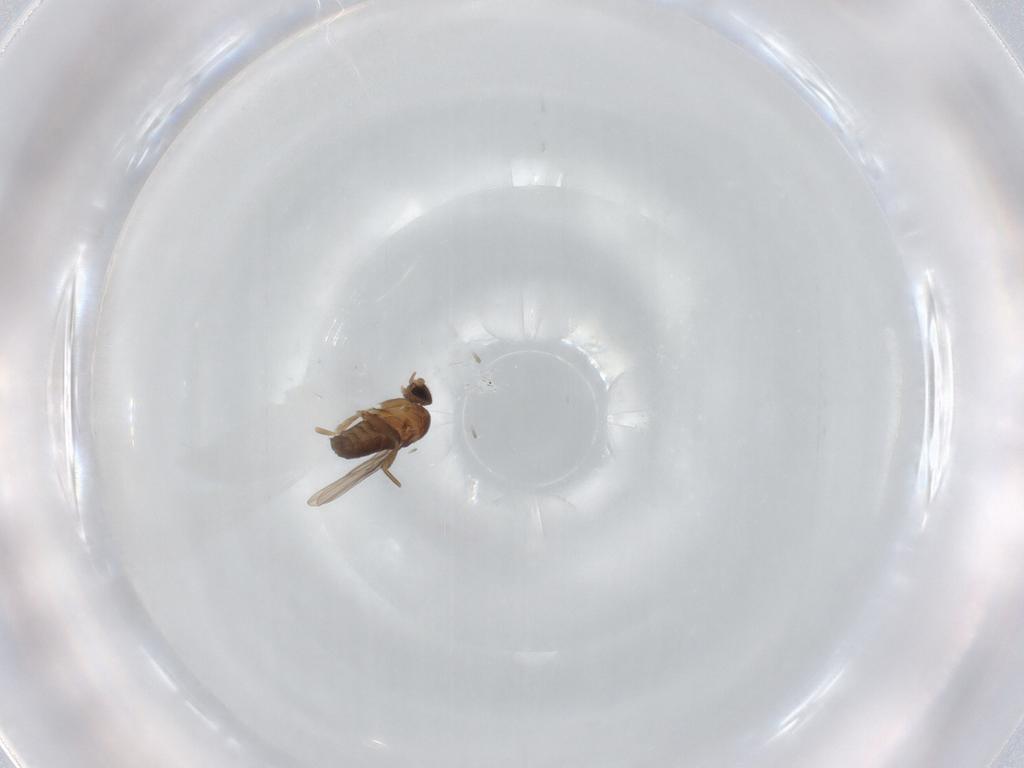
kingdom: Animalia
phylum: Arthropoda
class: Insecta
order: Diptera
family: Phoridae
